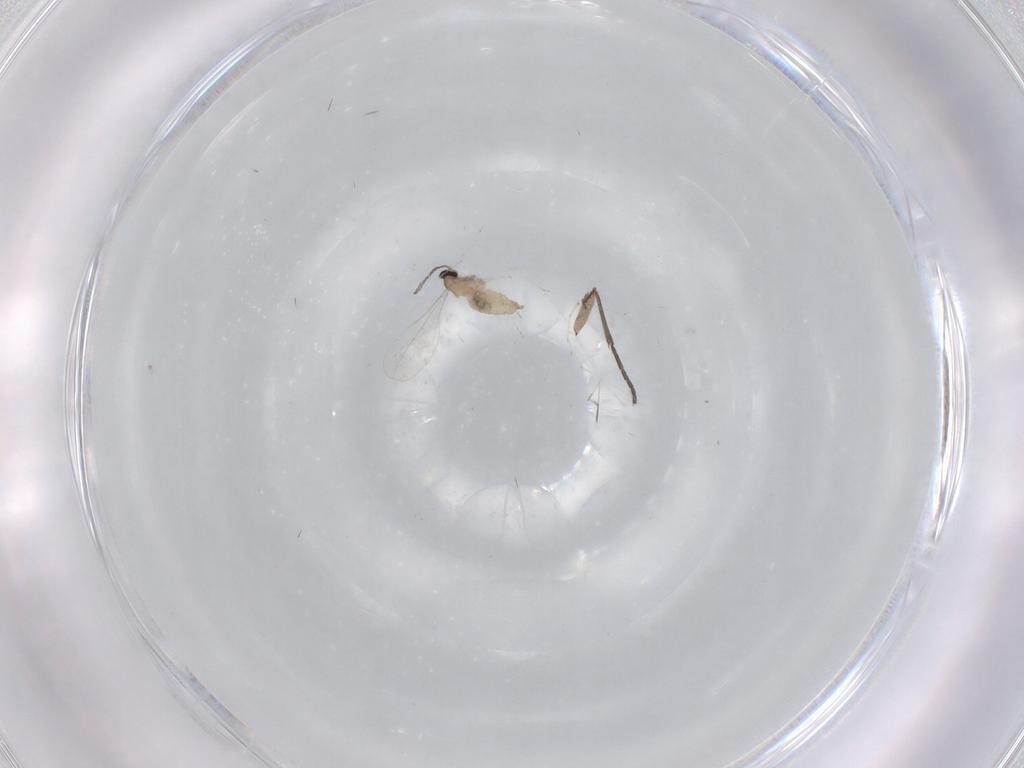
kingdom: Animalia
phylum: Arthropoda
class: Insecta
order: Diptera
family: Cecidomyiidae
